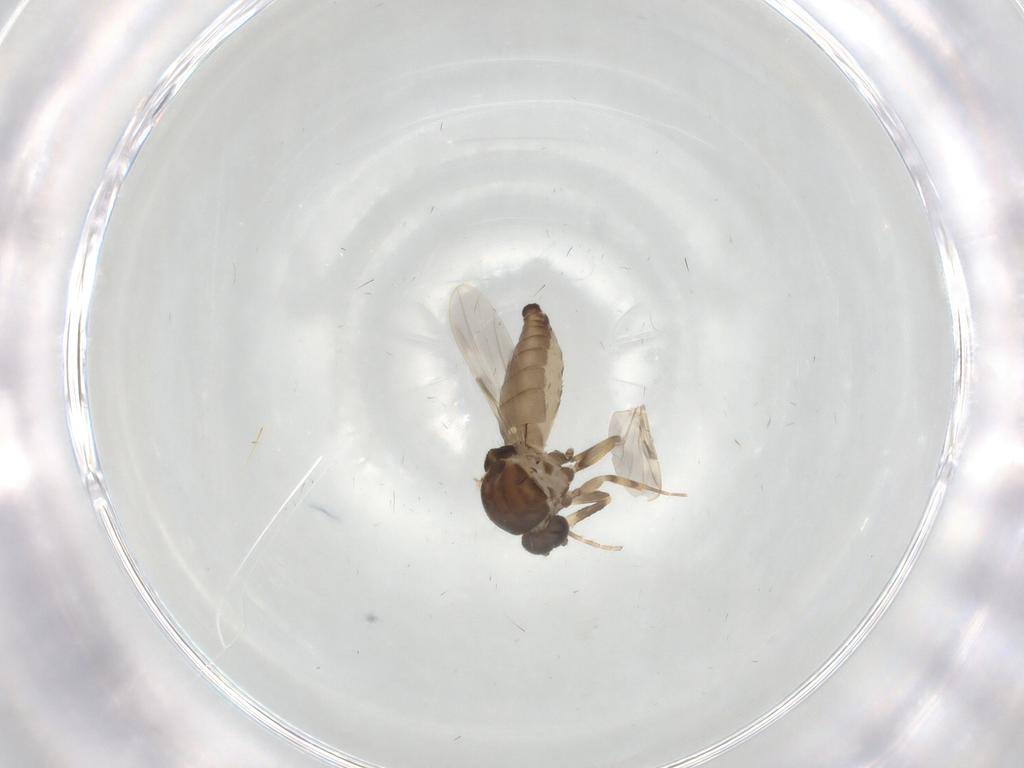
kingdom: Animalia
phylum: Arthropoda
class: Insecta
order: Diptera
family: Ceratopogonidae
